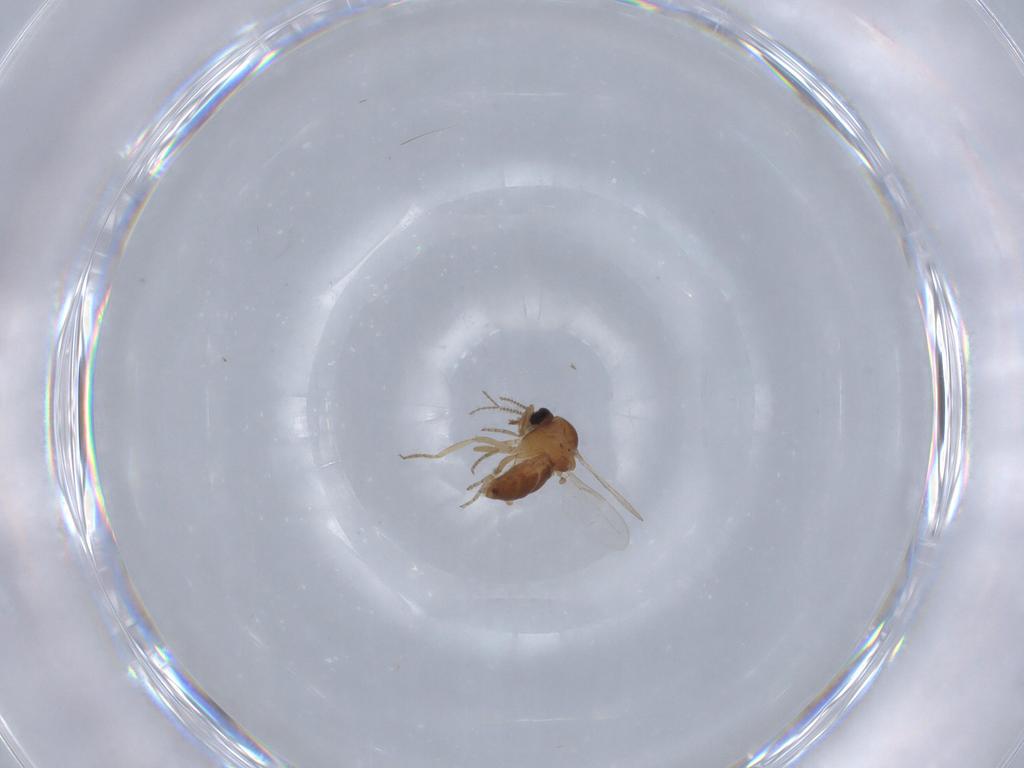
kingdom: Animalia
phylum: Arthropoda
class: Insecta
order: Diptera
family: Ceratopogonidae
